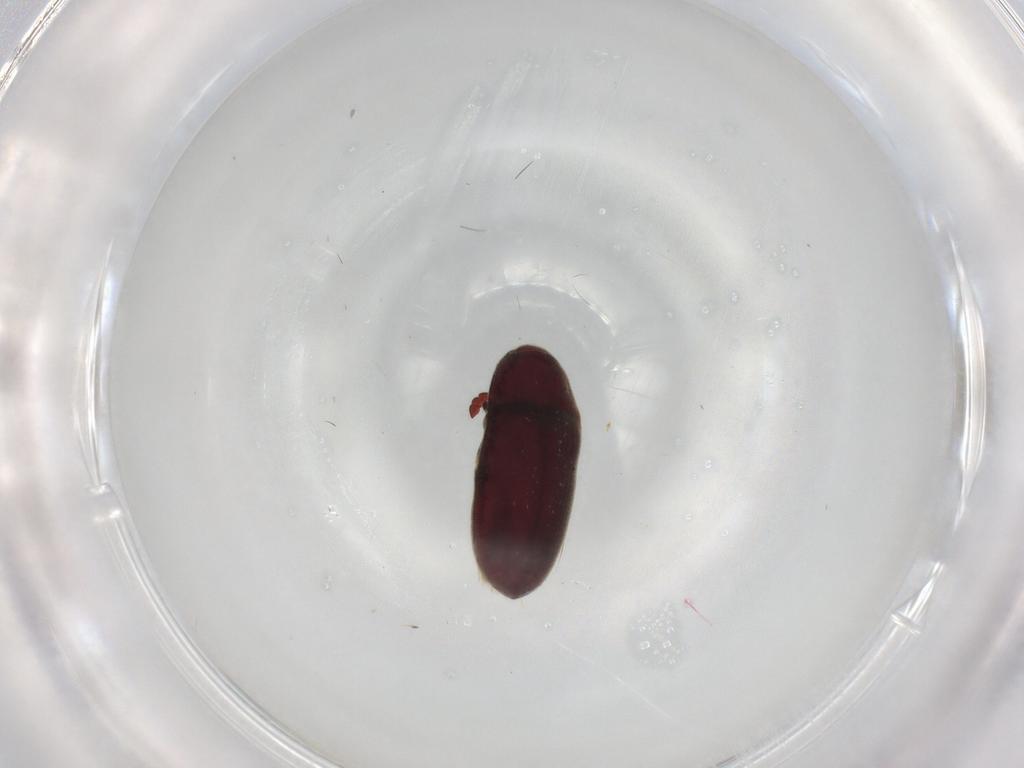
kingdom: Animalia
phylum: Arthropoda
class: Insecta
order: Coleoptera
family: Throscidae
